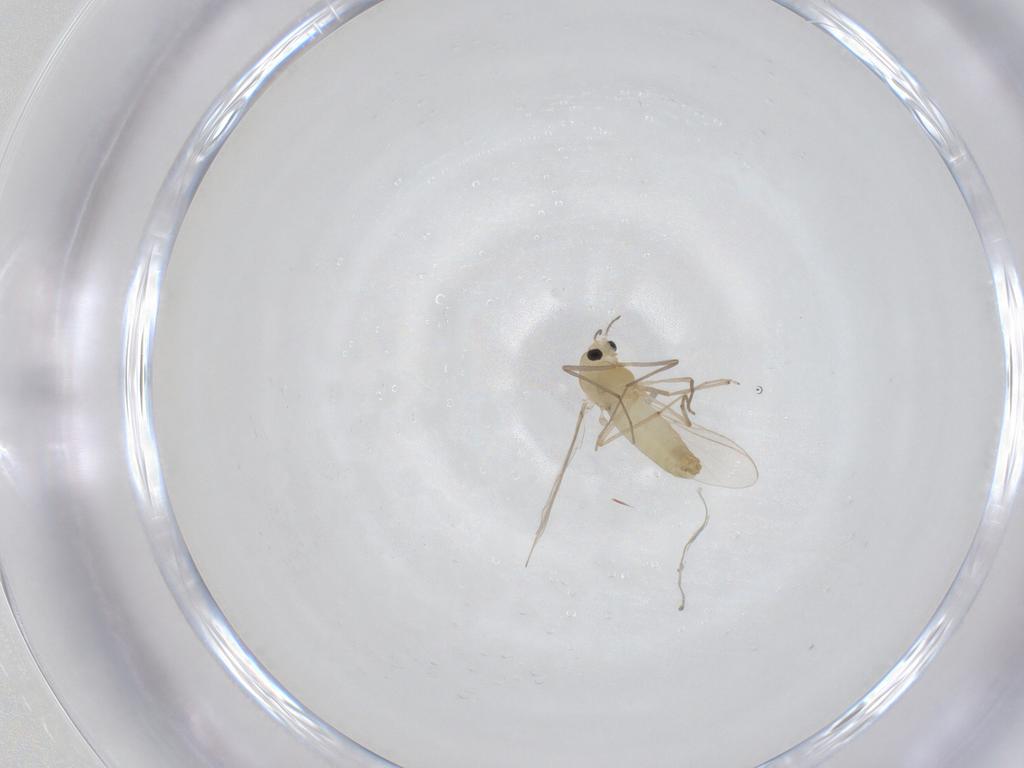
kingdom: Animalia
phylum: Arthropoda
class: Insecta
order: Diptera
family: Chironomidae
